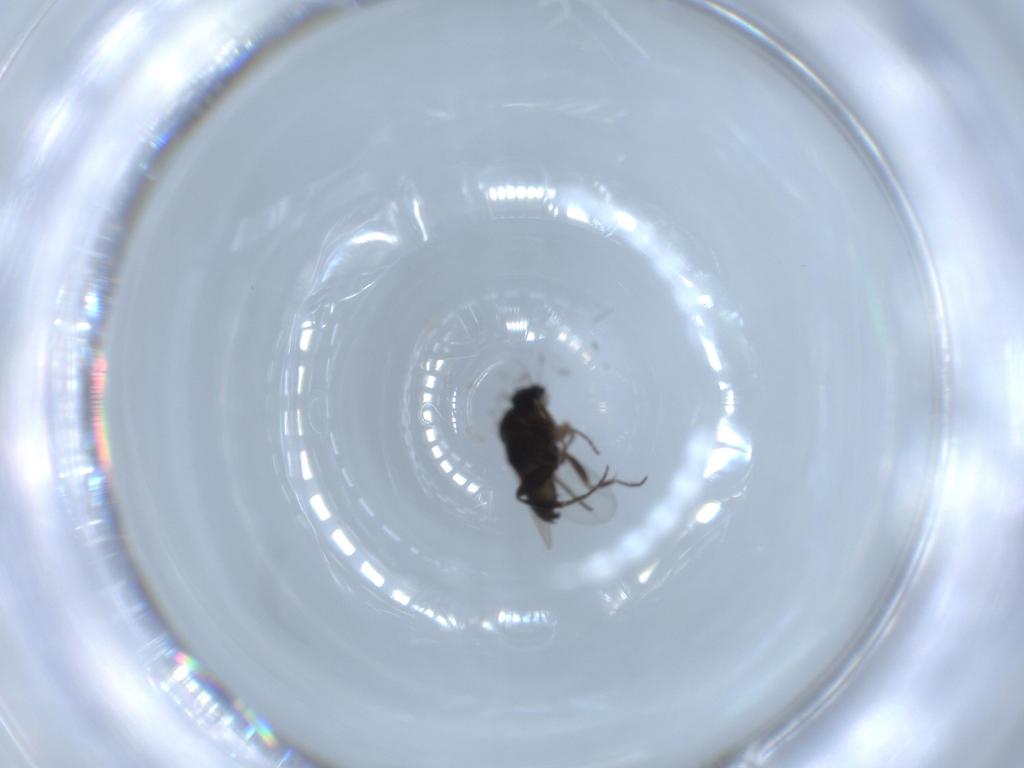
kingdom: Animalia
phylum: Arthropoda
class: Insecta
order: Diptera
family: Phoridae
